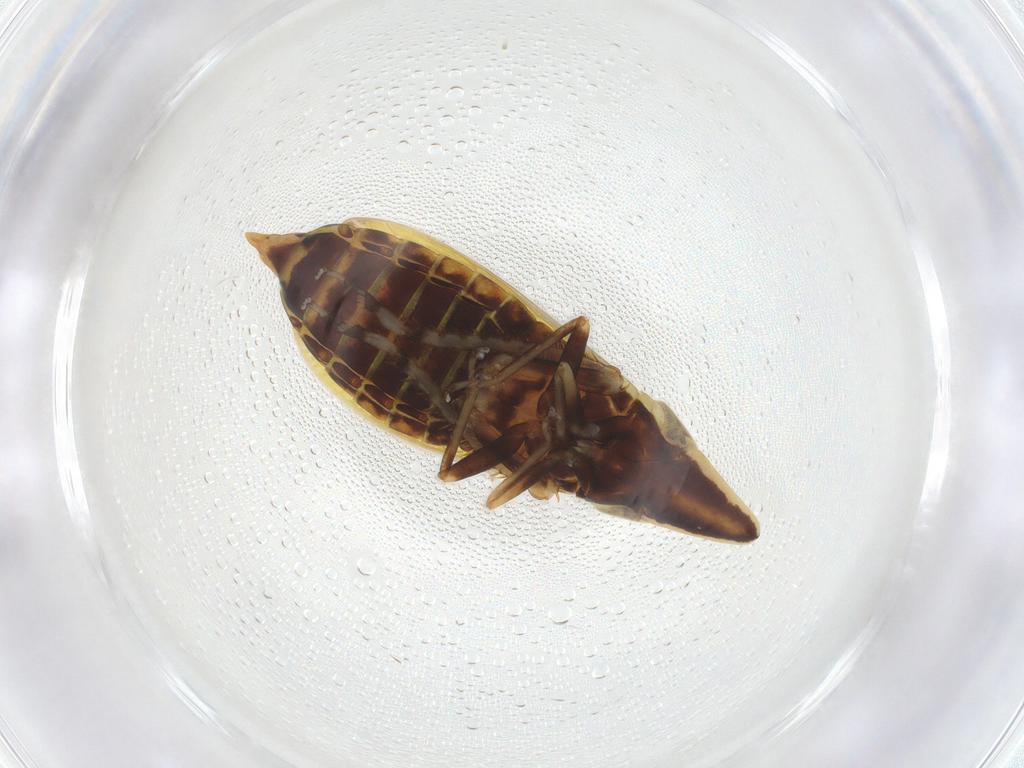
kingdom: Animalia
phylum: Arthropoda
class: Insecta
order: Hemiptera
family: Cicadellidae
